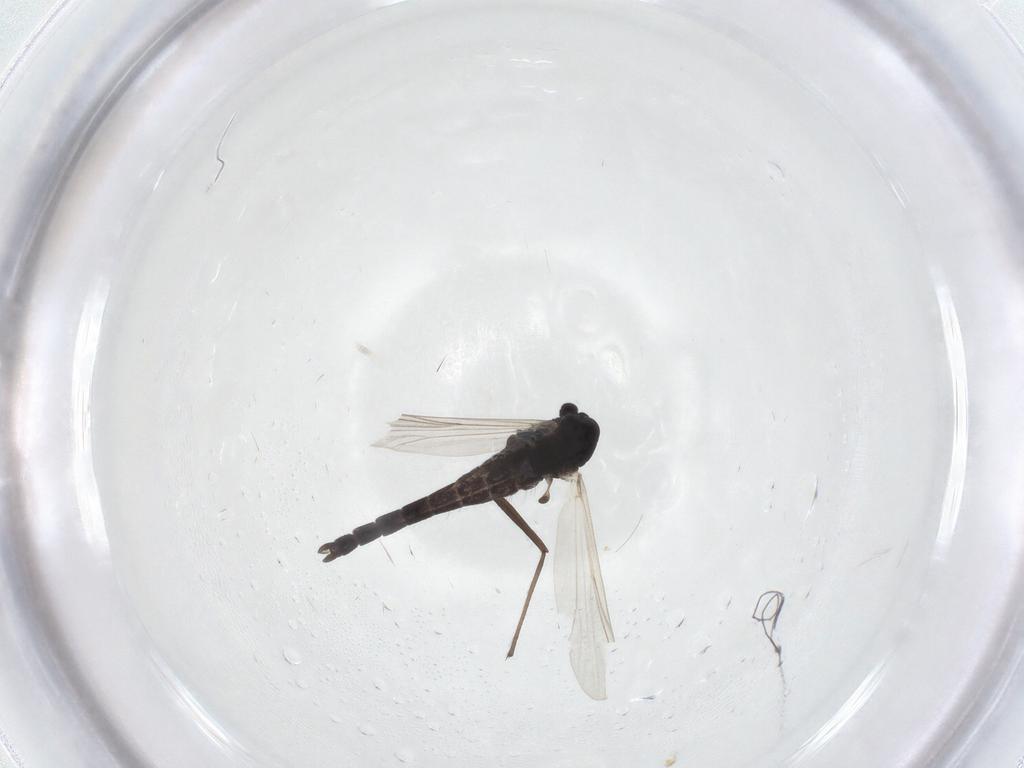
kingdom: Animalia
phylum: Arthropoda
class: Insecta
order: Diptera
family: Chironomidae
